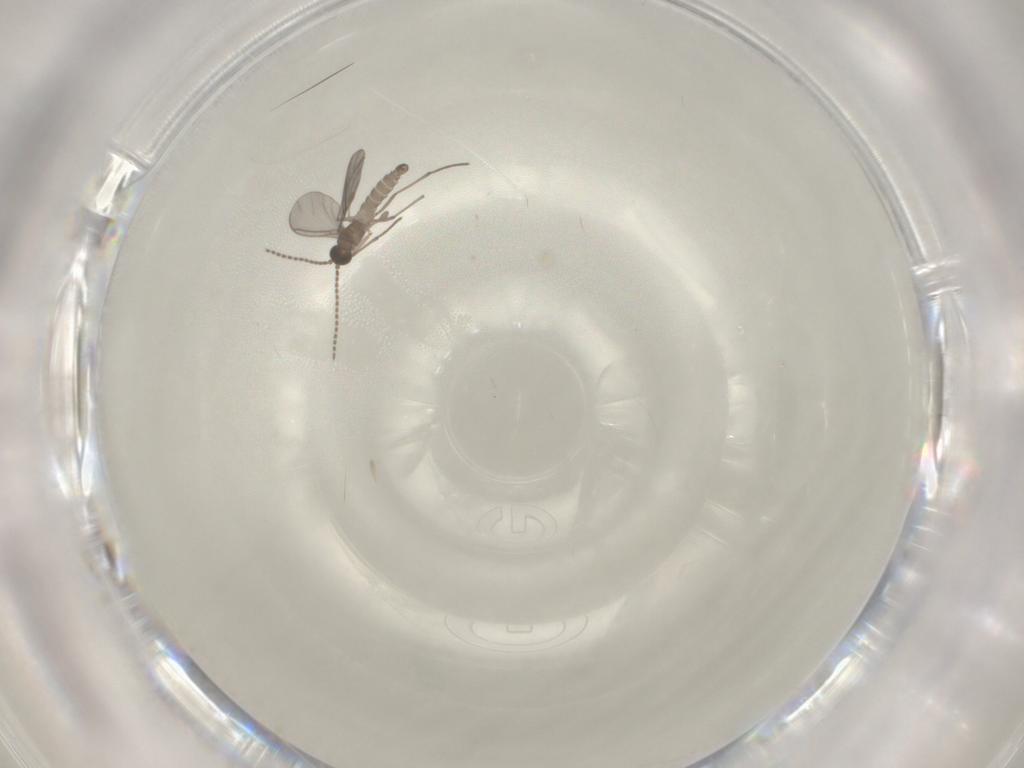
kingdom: Animalia
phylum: Arthropoda
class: Insecta
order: Diptera
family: Sciaridae
